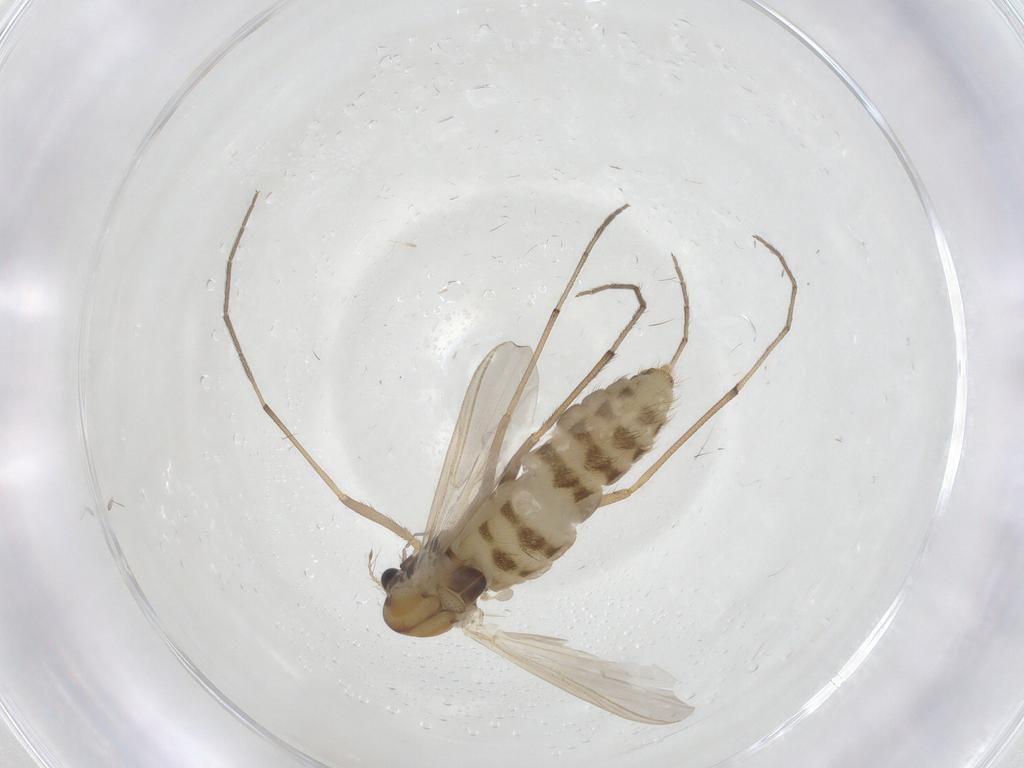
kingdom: Animalia
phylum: Arthropoda
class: Insecta
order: Diptera
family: Chironomidae
